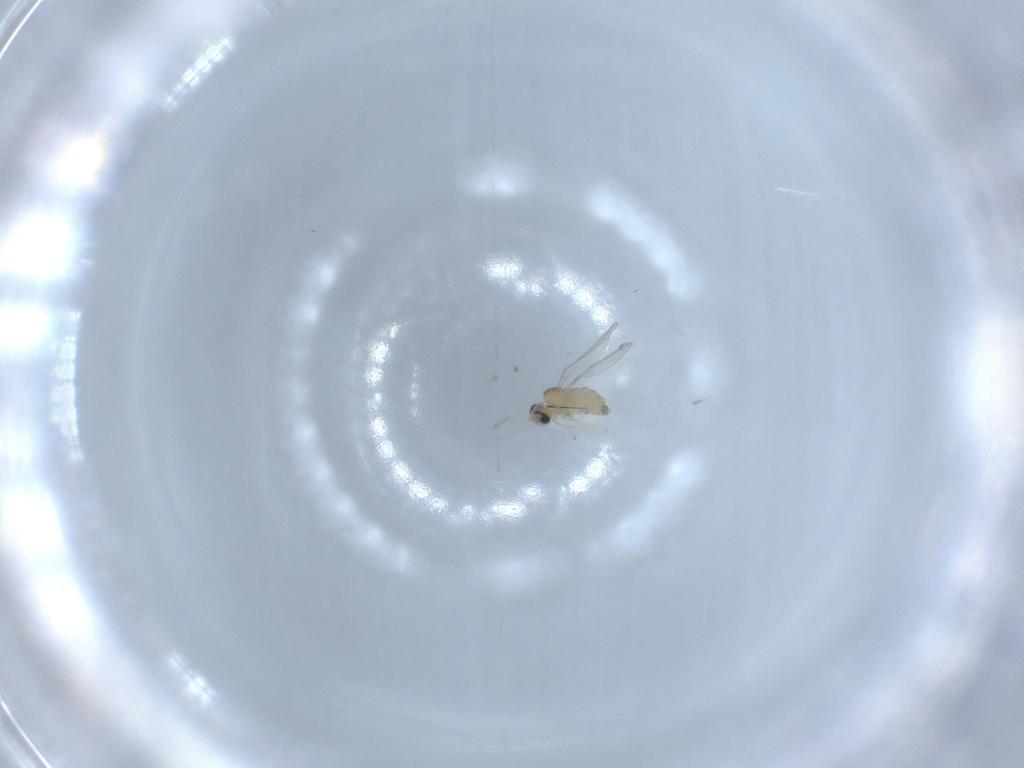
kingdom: Animalia
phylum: Arthropoda
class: Insecta
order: Diptera
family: Cecidomyiidae
